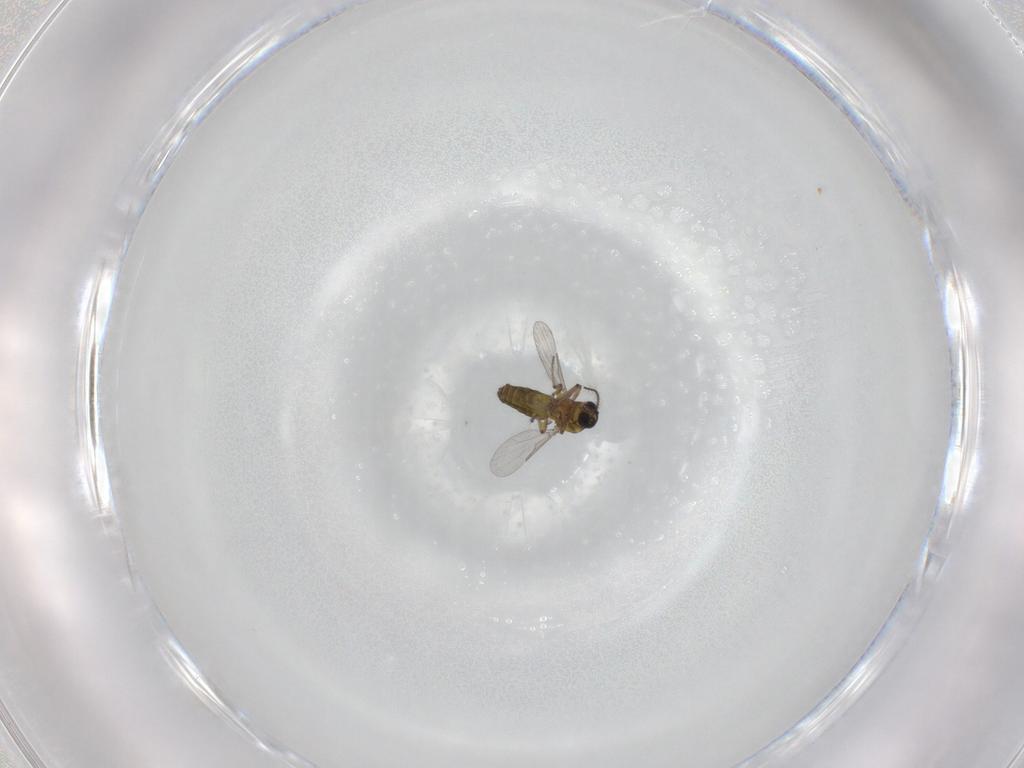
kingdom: Animalia
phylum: Arthropoda
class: Insecta
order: Diptera
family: Ceratopogonidae
